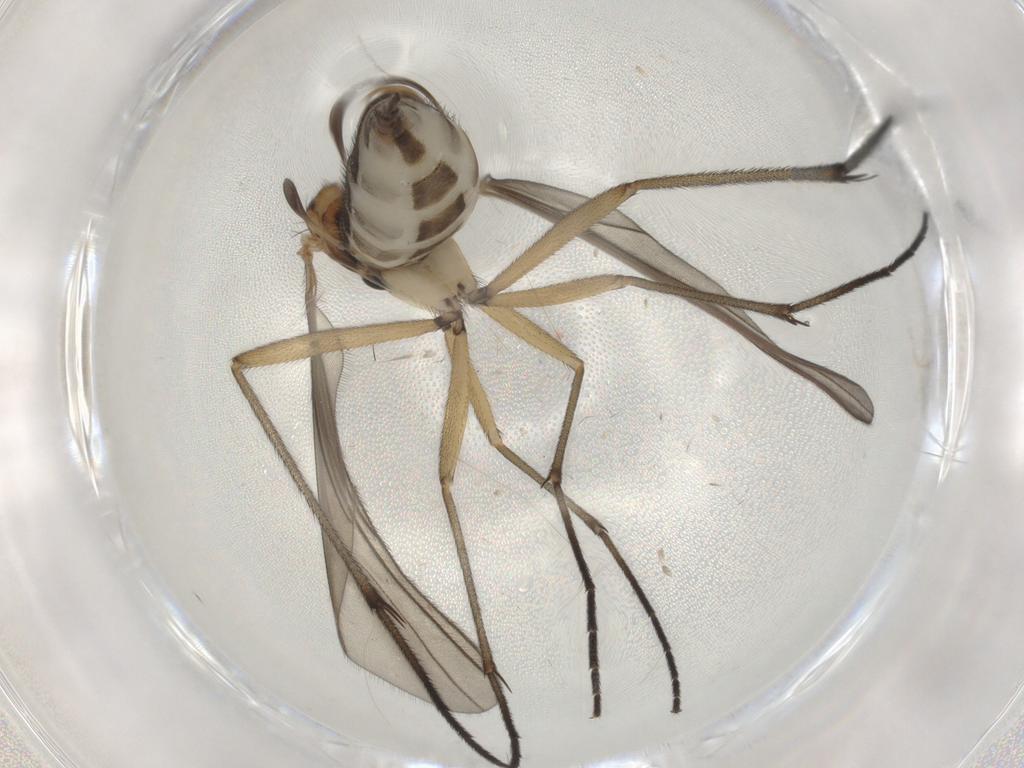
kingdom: Animalia
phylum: Arthropoda
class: Insecta
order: Diptera
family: Sciaridae
